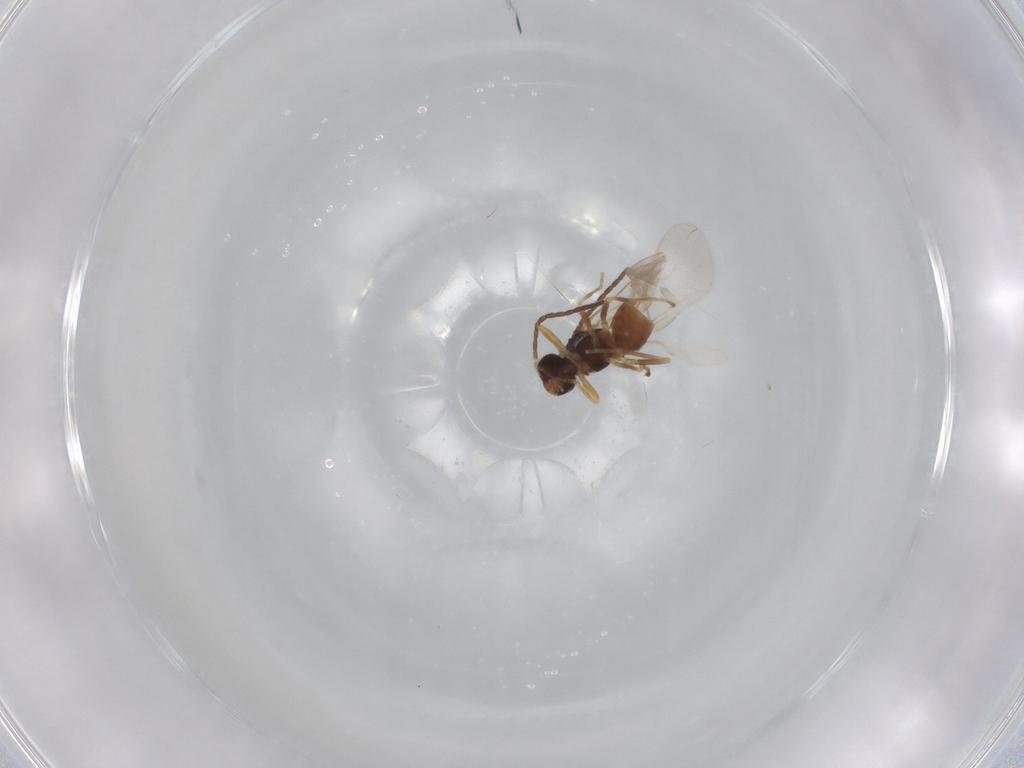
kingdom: Animalia
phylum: Arthropoda
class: Insecta
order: Hymenoptera
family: Braconidae
